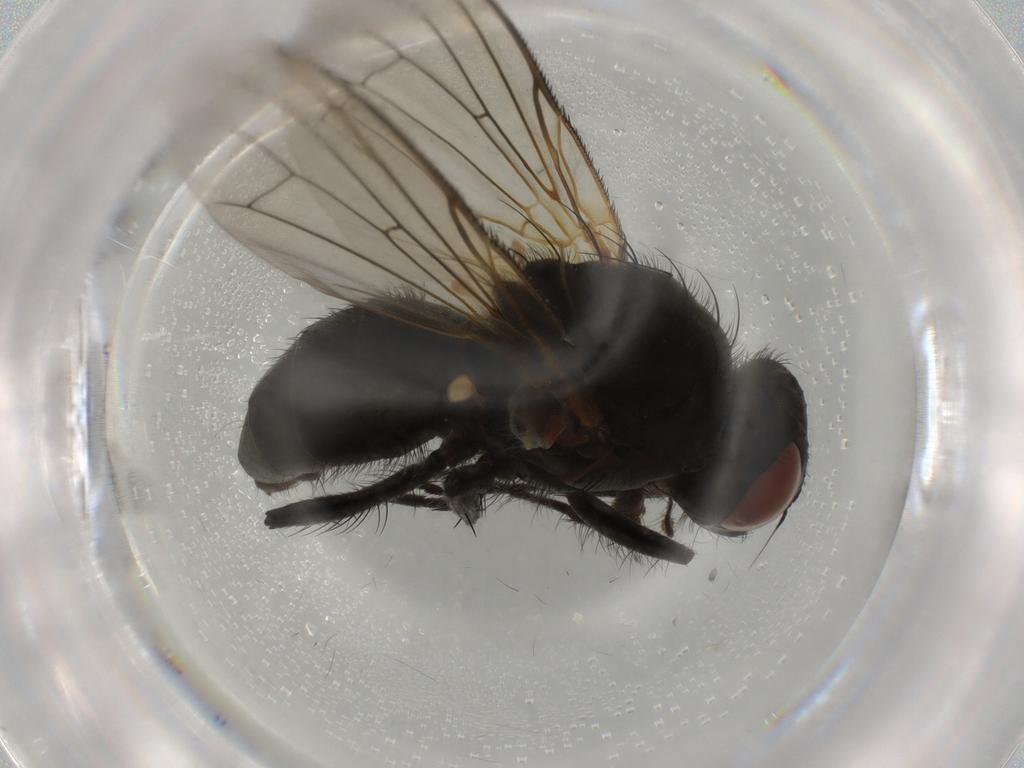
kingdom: Animalia
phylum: Arthropoda
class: Insecta
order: Diptera
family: Anthomyiidae
